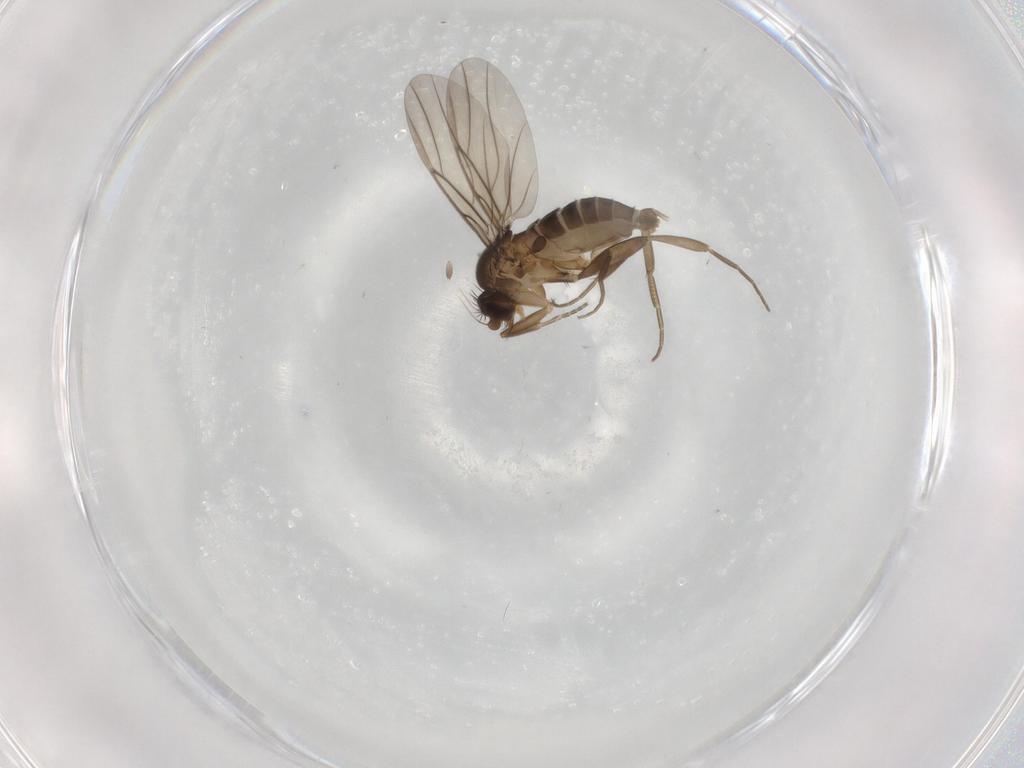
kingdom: Animalia
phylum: Arthropoda
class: Insecta
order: Diptera
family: Phoridae
